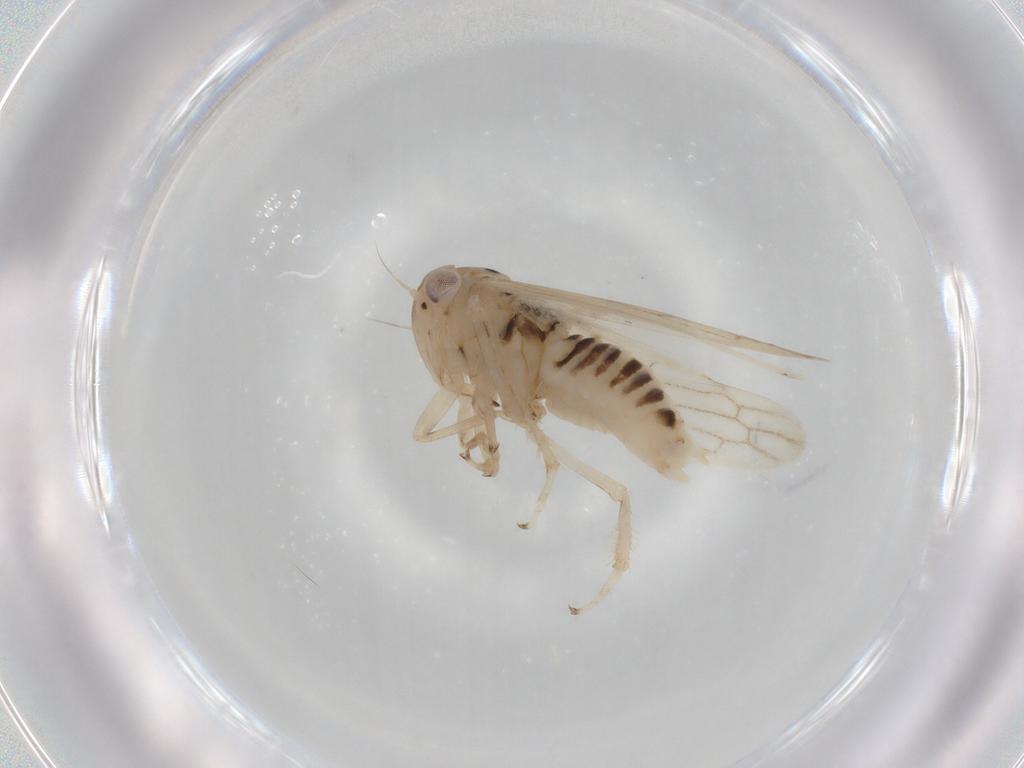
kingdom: Animalia
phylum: Arthropoda
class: Insecta
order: Hemiptera
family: Cicadellidae
